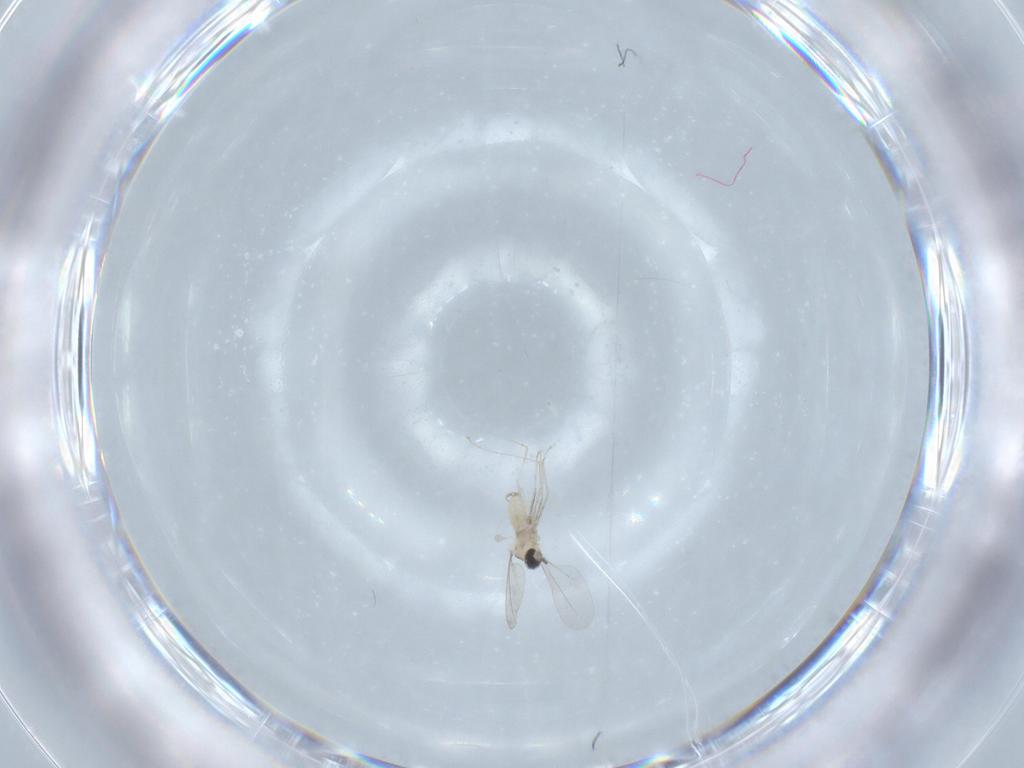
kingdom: Animalia
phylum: Arthropoda
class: Insecta
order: Diptera
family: Cecidomyiidae
